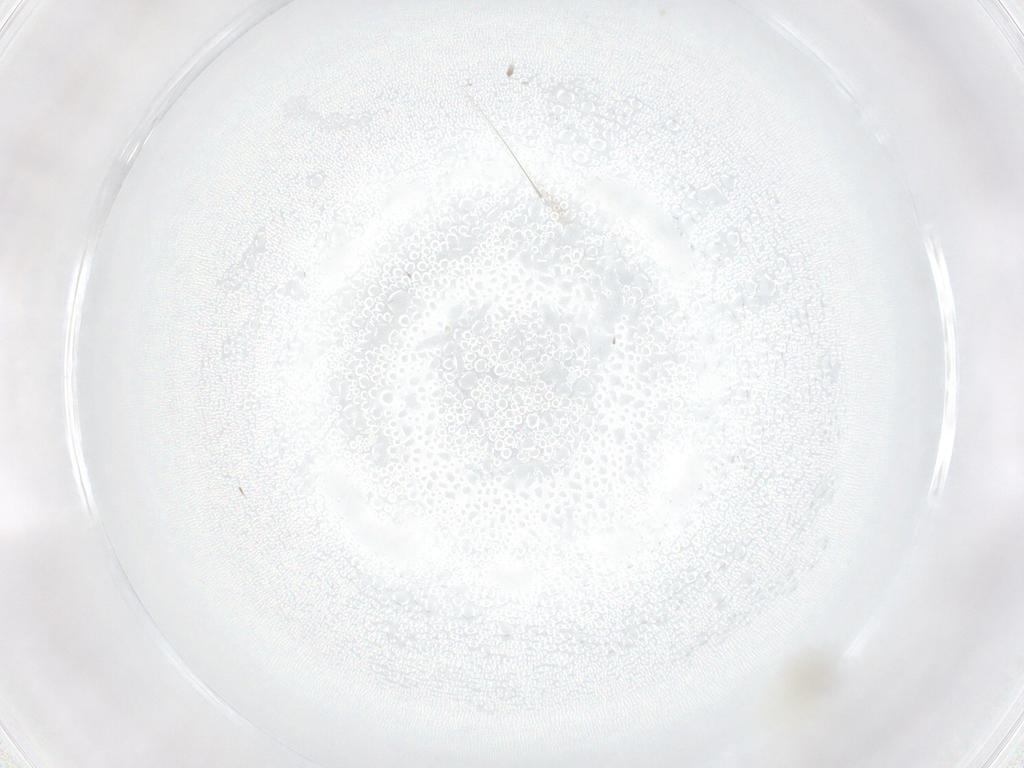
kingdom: Animalia
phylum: Arthropoda
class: Insecta
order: Diptera
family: Sciaridae
